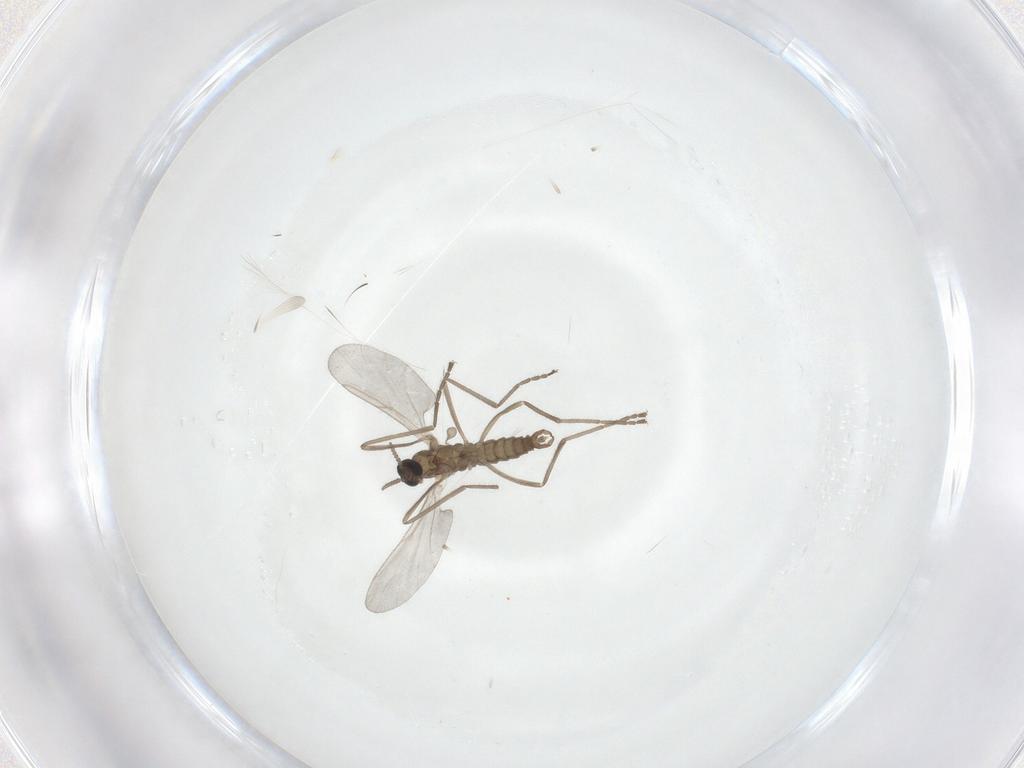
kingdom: Animalia
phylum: Arthropoda
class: Insecta
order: Diptera
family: Cecidomyiidae
